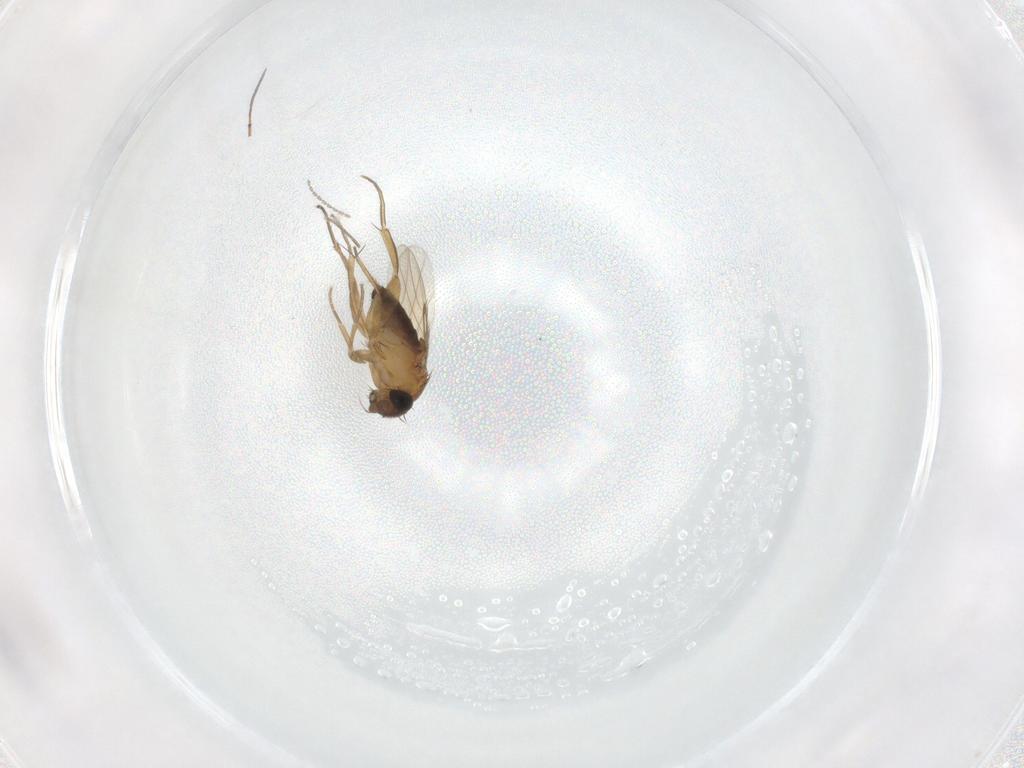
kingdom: Animalia
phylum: Arthropoda
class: Insecta
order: Diptera
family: Phoridae
